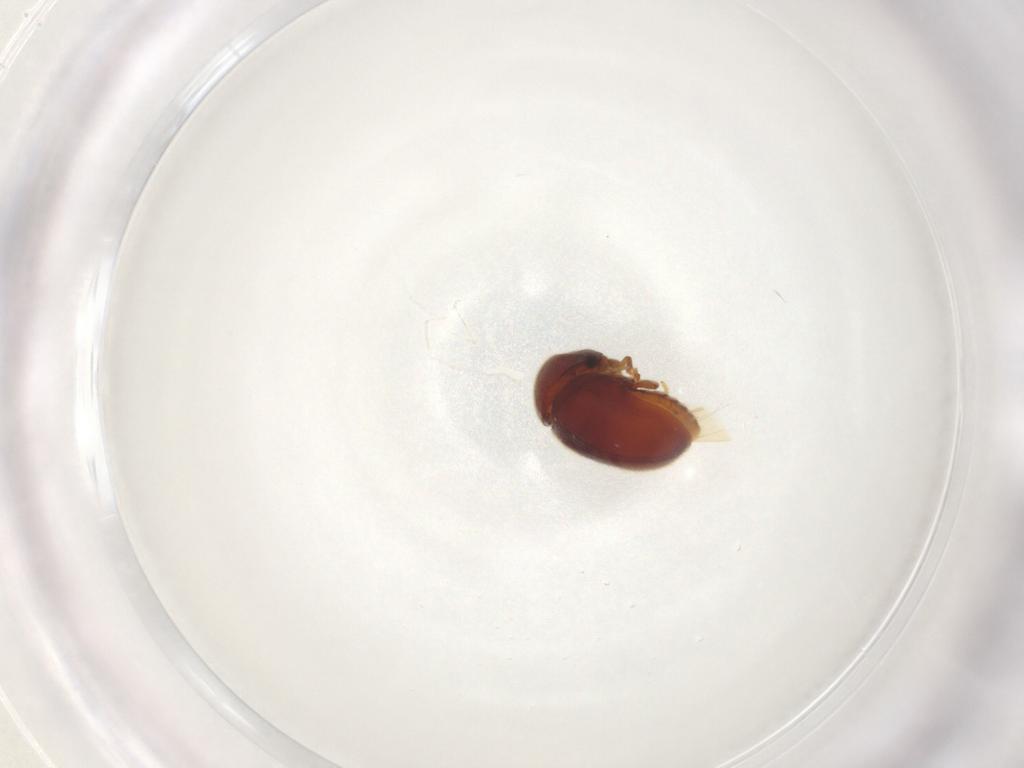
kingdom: Animalia
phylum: Arthropoda
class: Insecta
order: Coleoptera
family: Ptinidae
